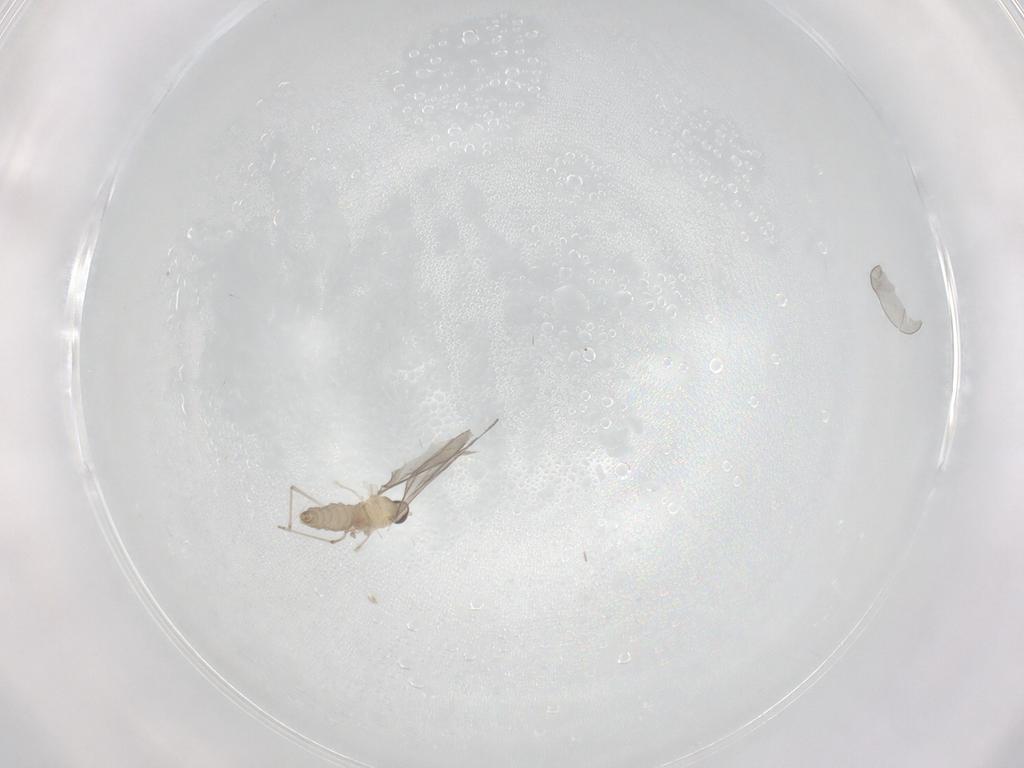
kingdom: Animalia
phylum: Arthropoda
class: Insecta
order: Diptera
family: Cecidomyiidae
